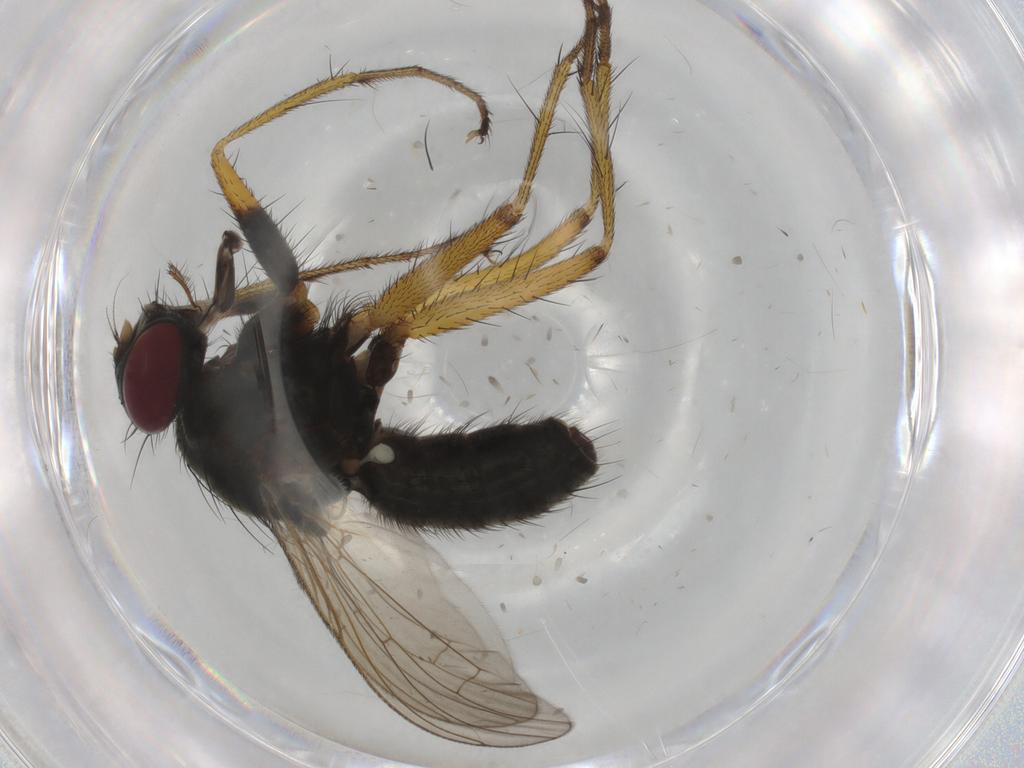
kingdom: Animalia
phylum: Arthropoda
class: Insecta
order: Diptera
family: Muscidae
